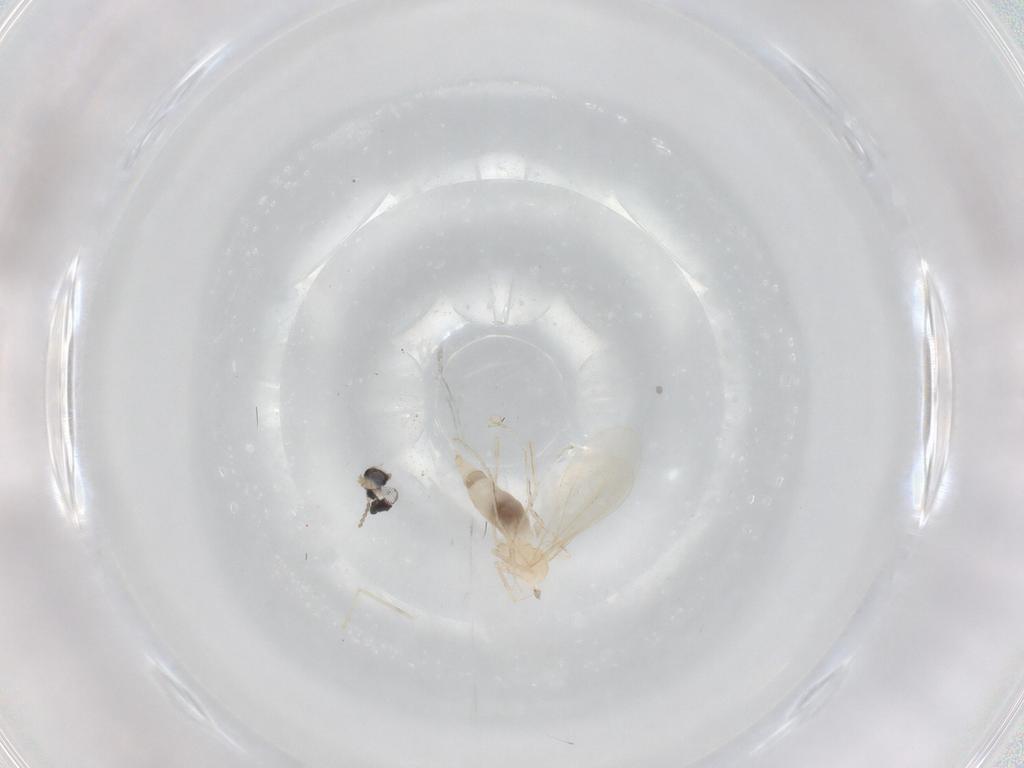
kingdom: Animalia
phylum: Arthropoda
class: Insecta
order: Diptera
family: Cecidomyiidae
